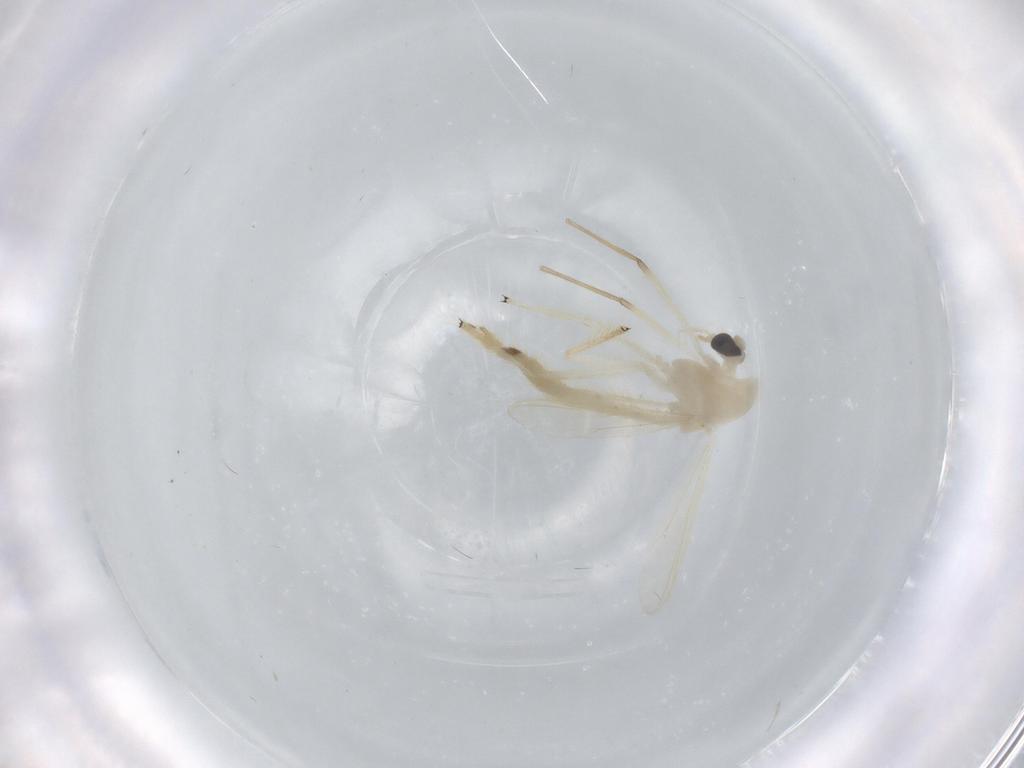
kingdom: Animalia
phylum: Arthropoda
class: Insecta
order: Diptera
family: Chironomidae
